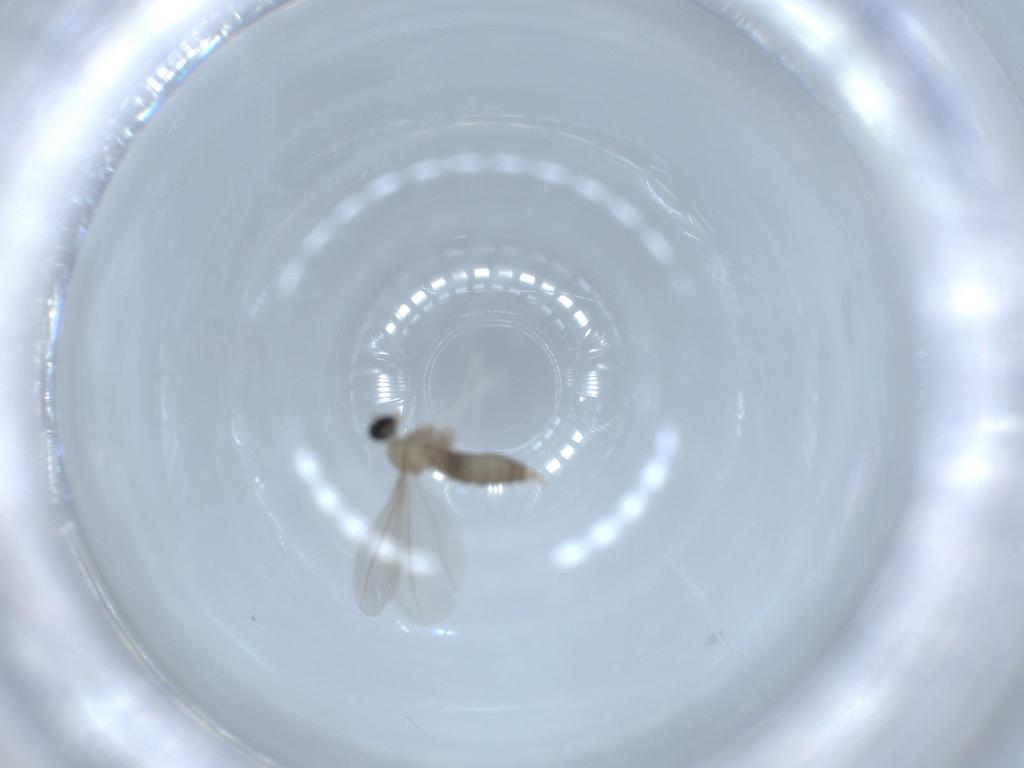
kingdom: Animalia
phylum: Arthropoda
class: Insecta
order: Diptera
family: Cecidomyiidae
